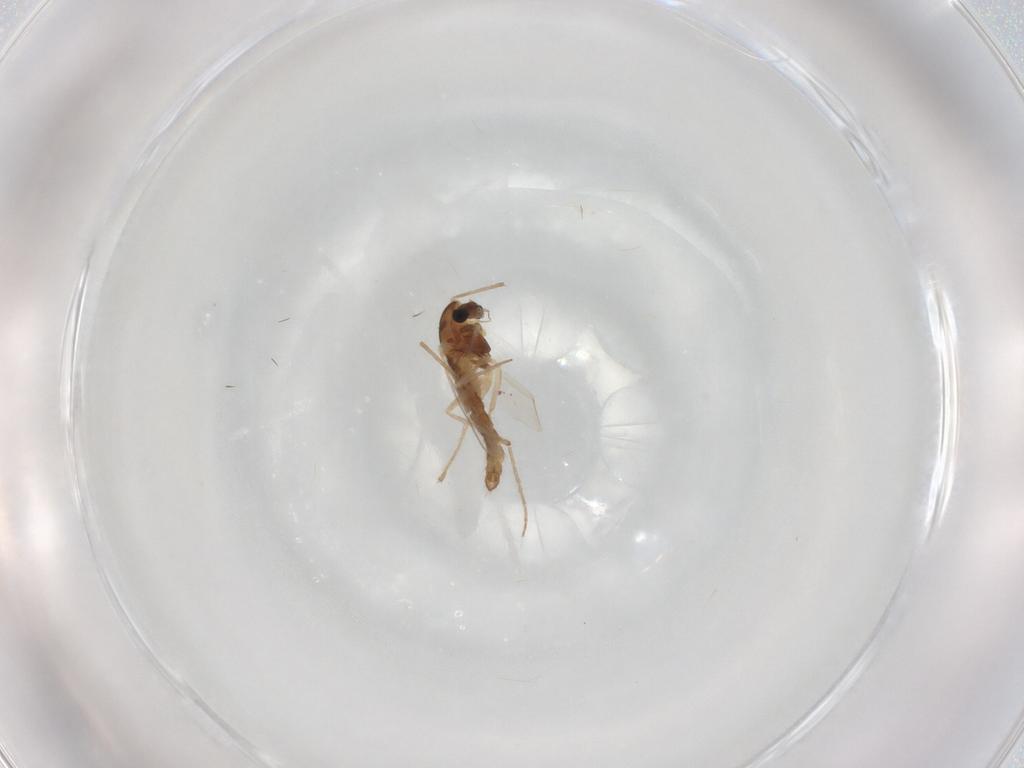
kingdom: Animalia
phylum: Arthropoda
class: Insecta
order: Diptera
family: Chironomidae
